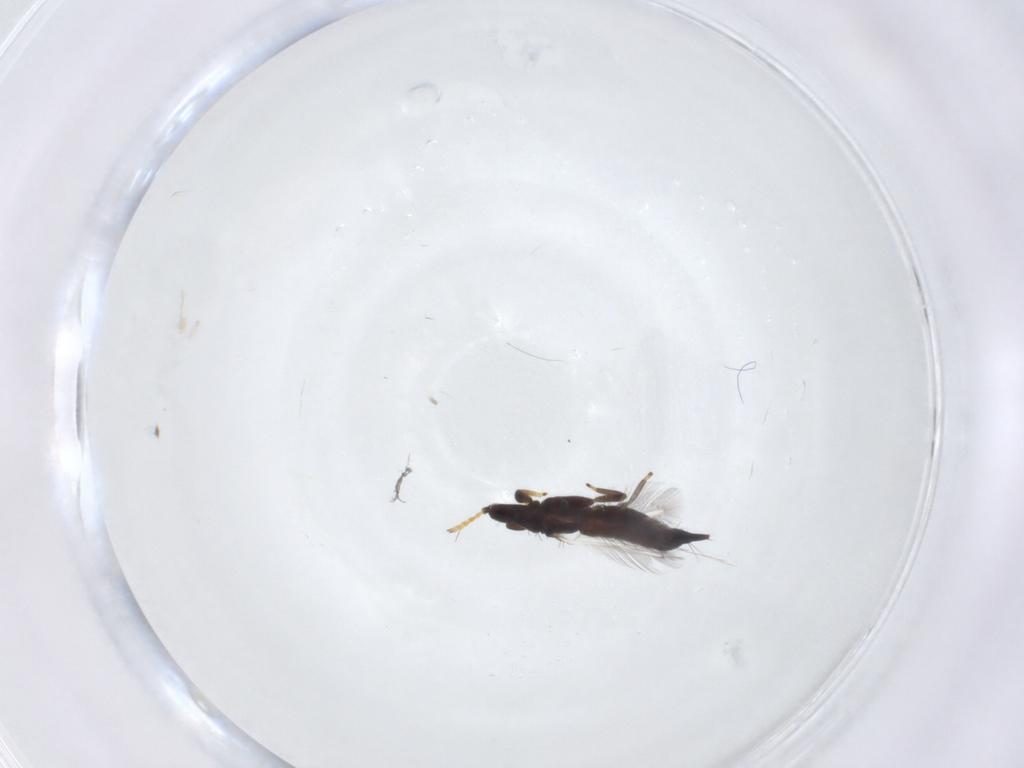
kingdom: Animalia
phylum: Arthropoda
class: Insecta
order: Thysanoptera
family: Phlaeothripidae
